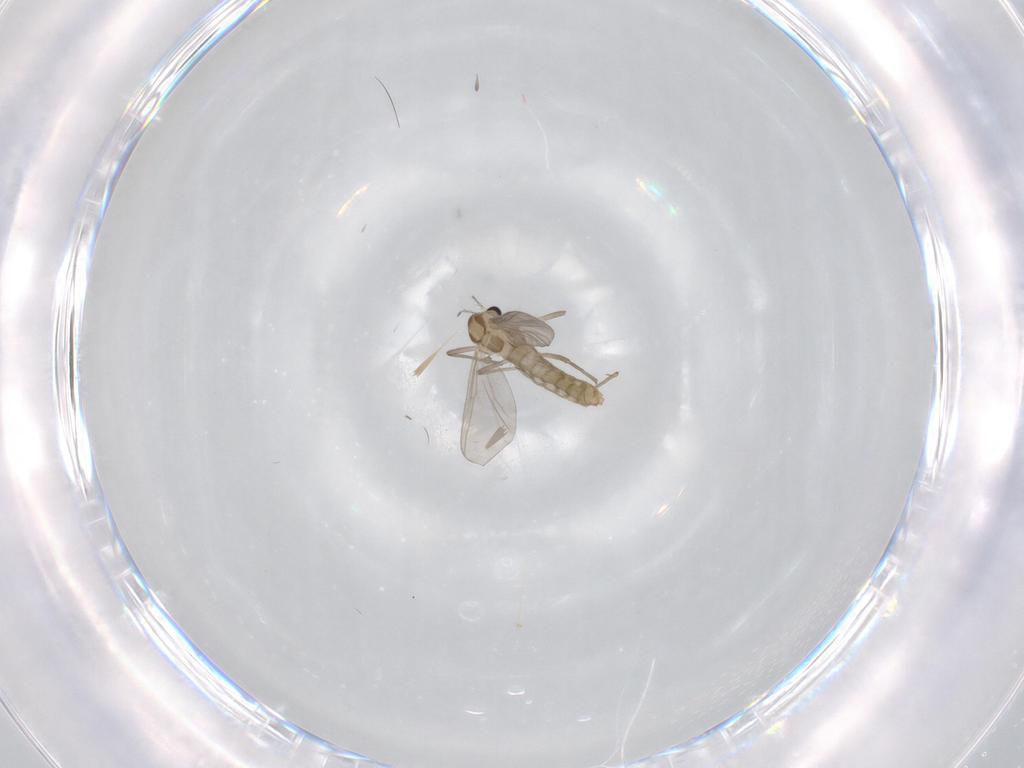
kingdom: Animalia
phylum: Arthropoda
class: Insecta
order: Diptera
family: Chironomidae
